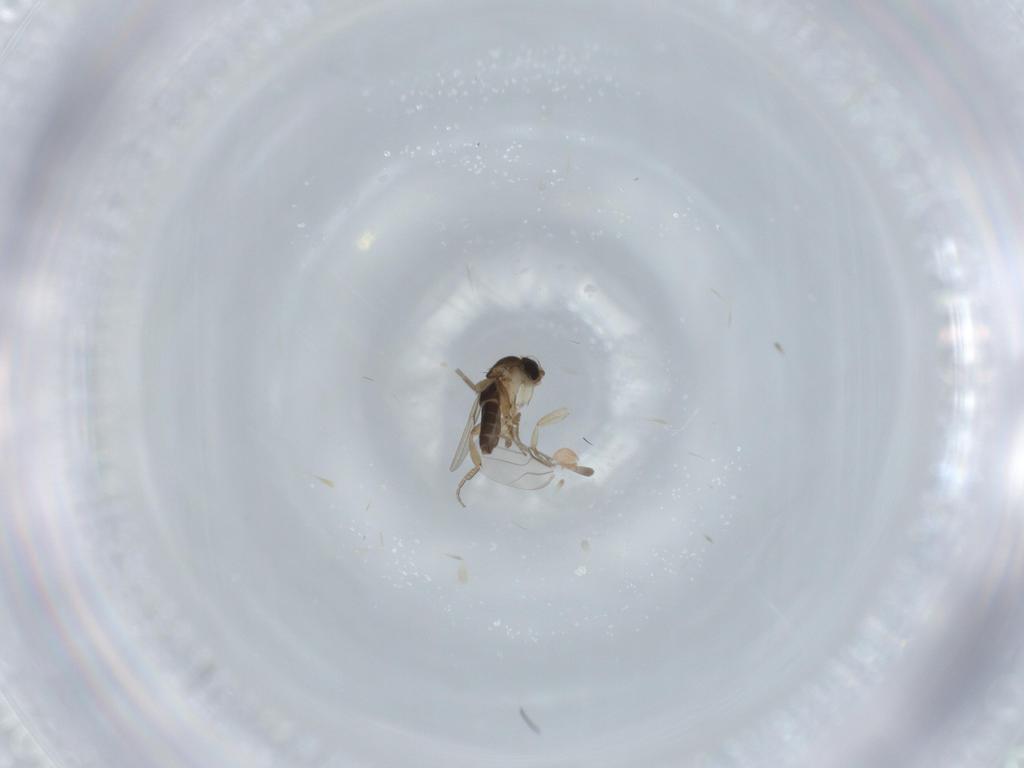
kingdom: Animalia
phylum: Arthropoda
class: Insecta
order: Diptera
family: Phoridae
